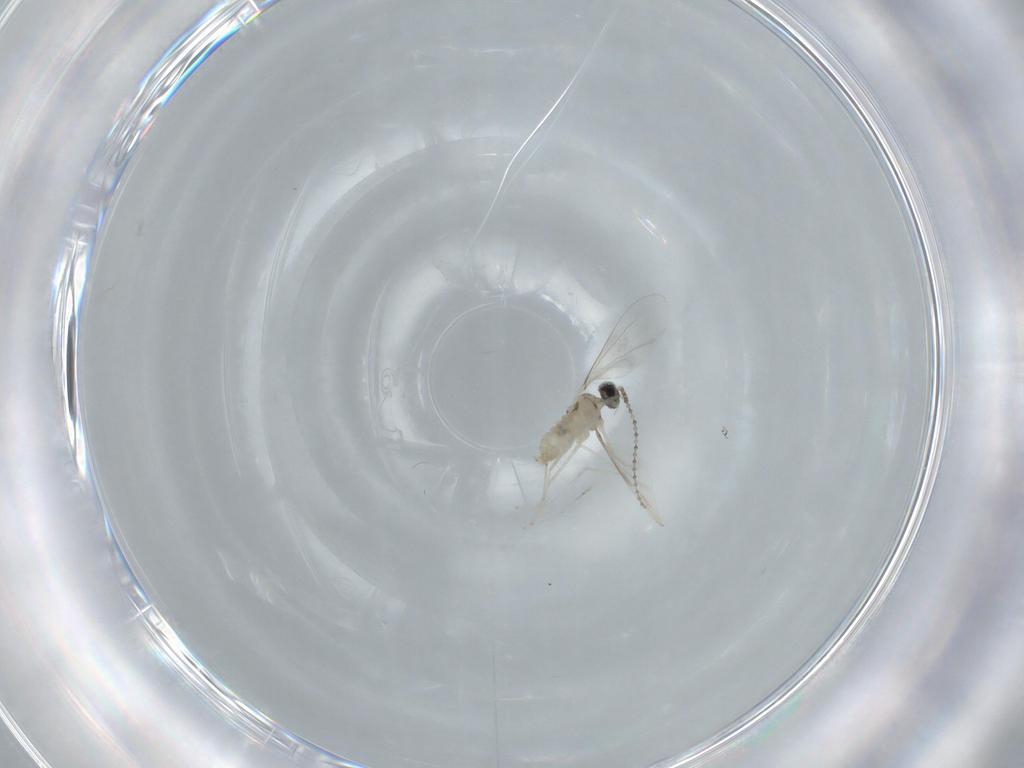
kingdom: Animalia
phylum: Arthropoda
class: Insecta
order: Diptera
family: Cecidomyiidae
